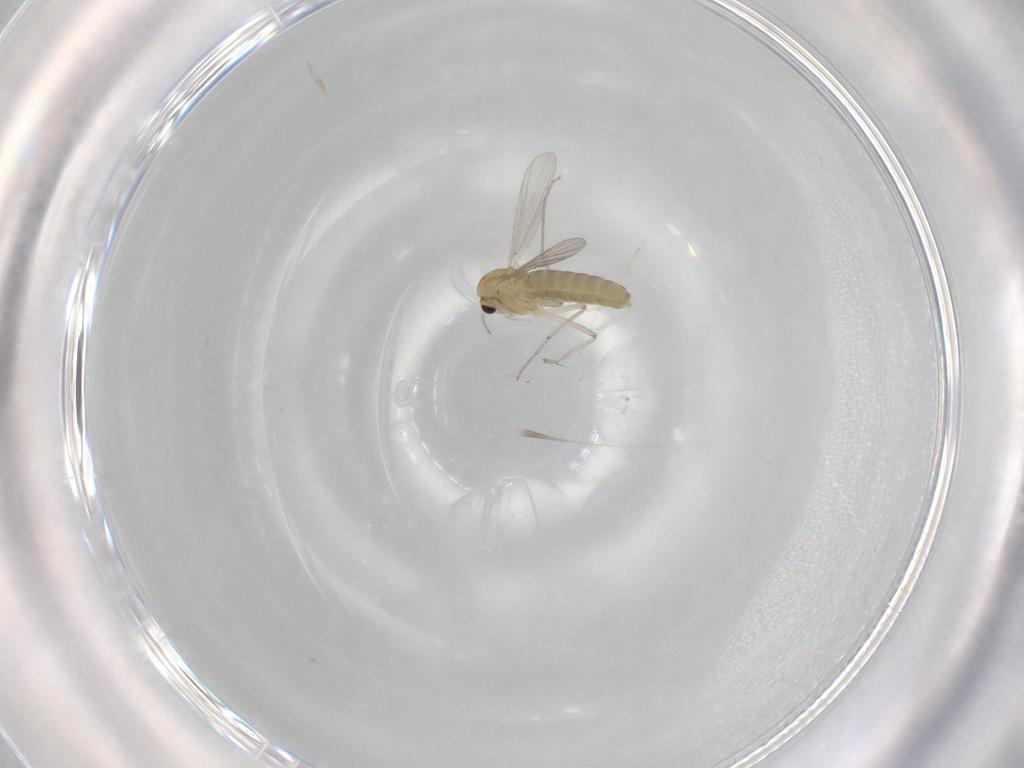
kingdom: Animalia
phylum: Arthropoda
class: Insecta
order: Diptera
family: Chironomidae
